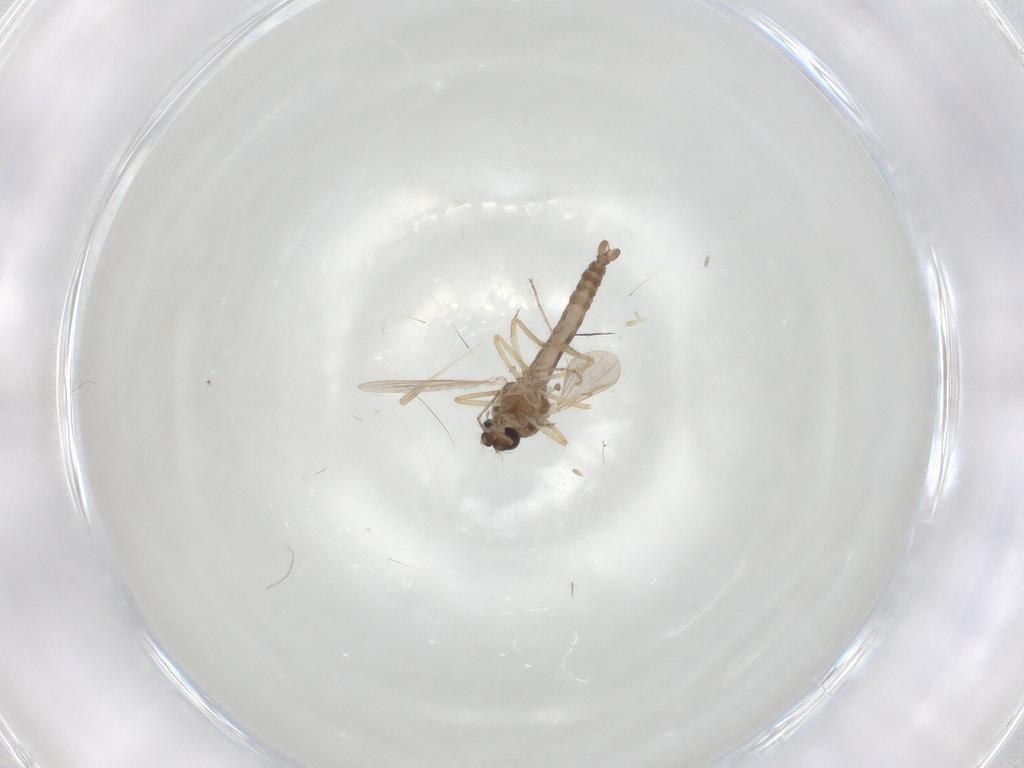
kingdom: Animalia
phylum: Arthropoda
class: Insecta
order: Diptera
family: Ceratopogonidae
